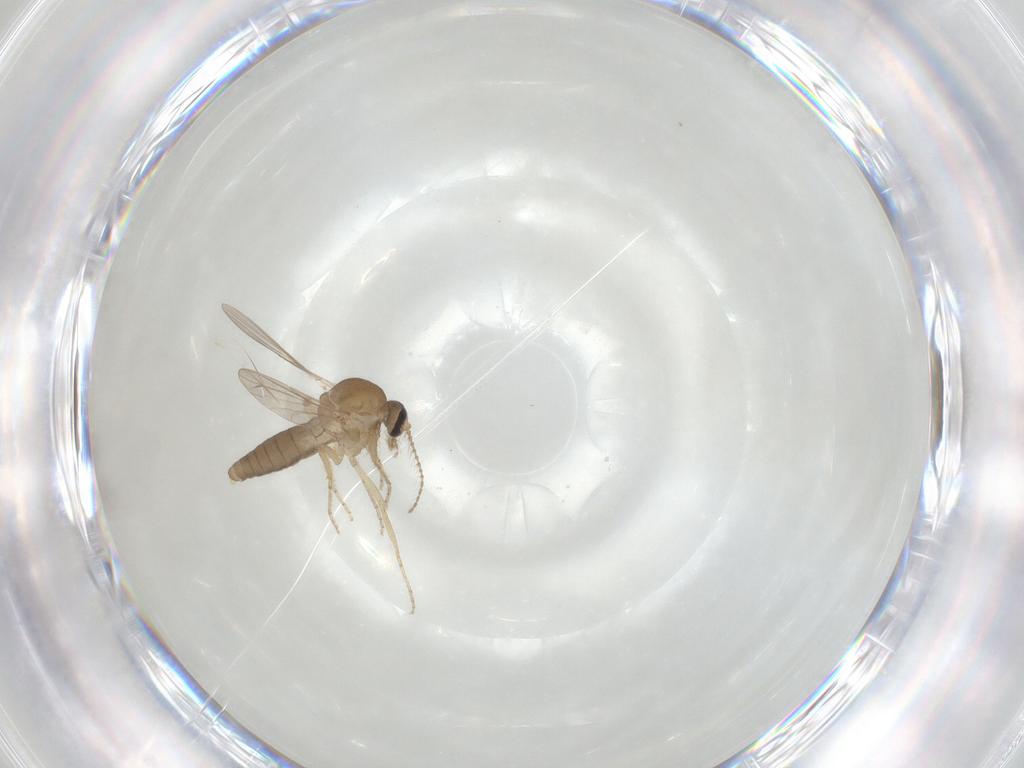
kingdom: Animalia
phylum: Arthropoda
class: Insecta
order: Diptera
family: Ceratopogonidae
